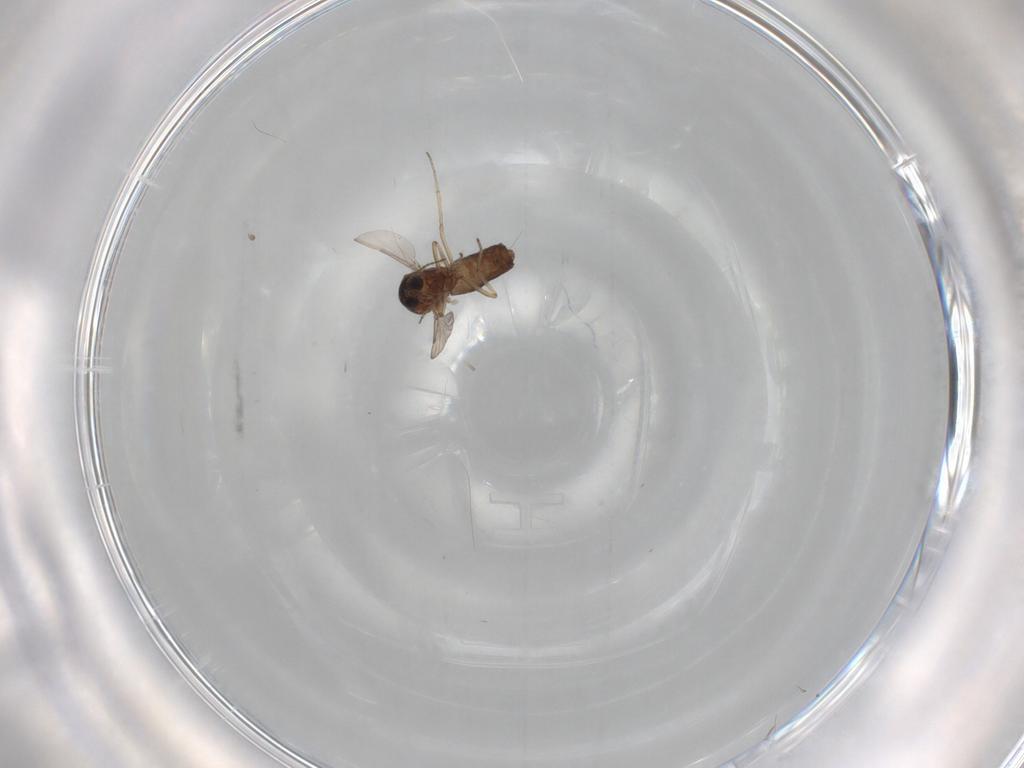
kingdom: Animalia
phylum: Arthropoda
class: Insecta
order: Diptera
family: Ceratopogonidae
